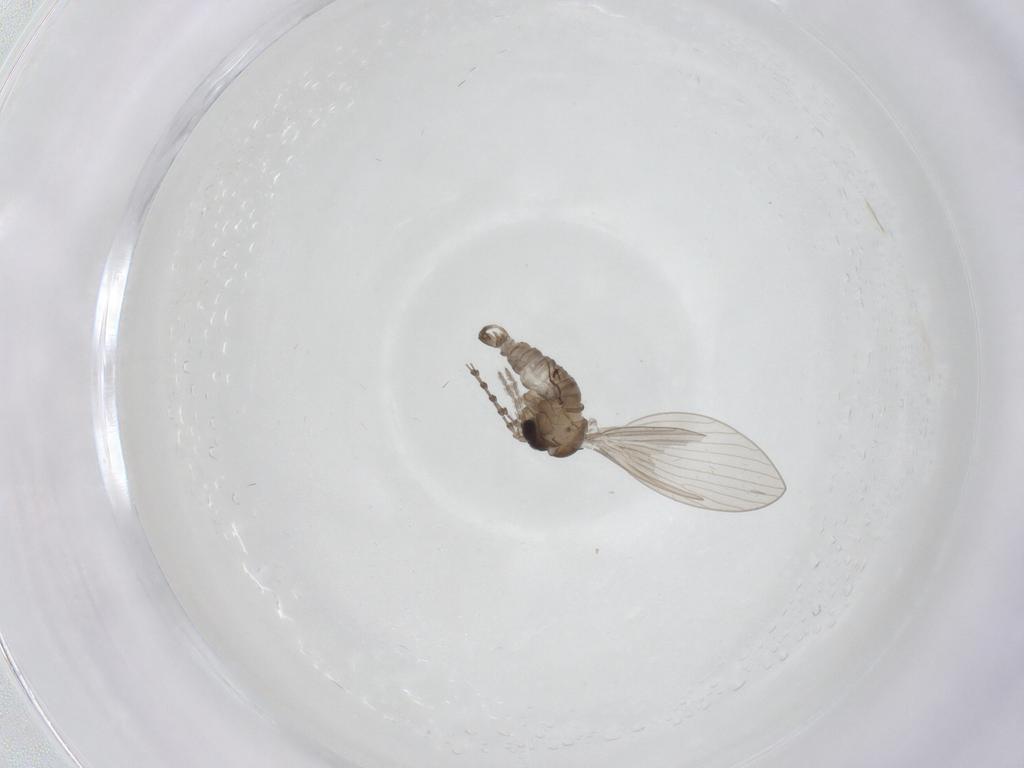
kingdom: Animalia
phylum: Arthropoda
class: Insecta
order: Diptera
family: Psychodidae
